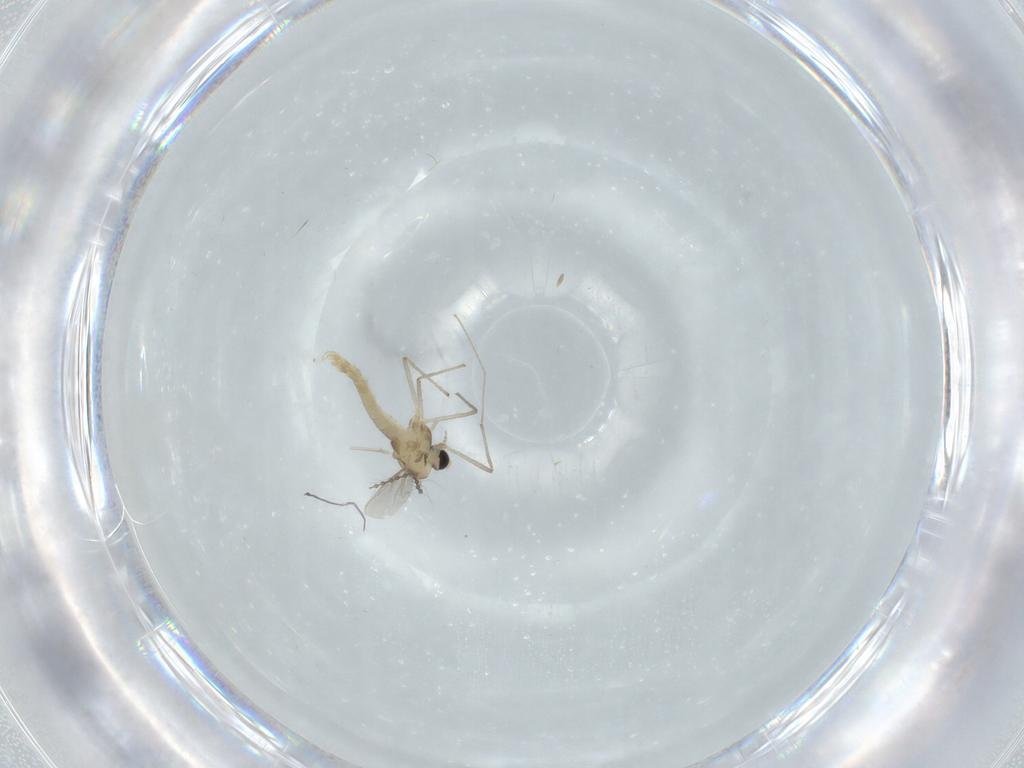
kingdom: Animalia
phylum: Arthropoda
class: Insecta
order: Diptera
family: Cecidomyiidae
